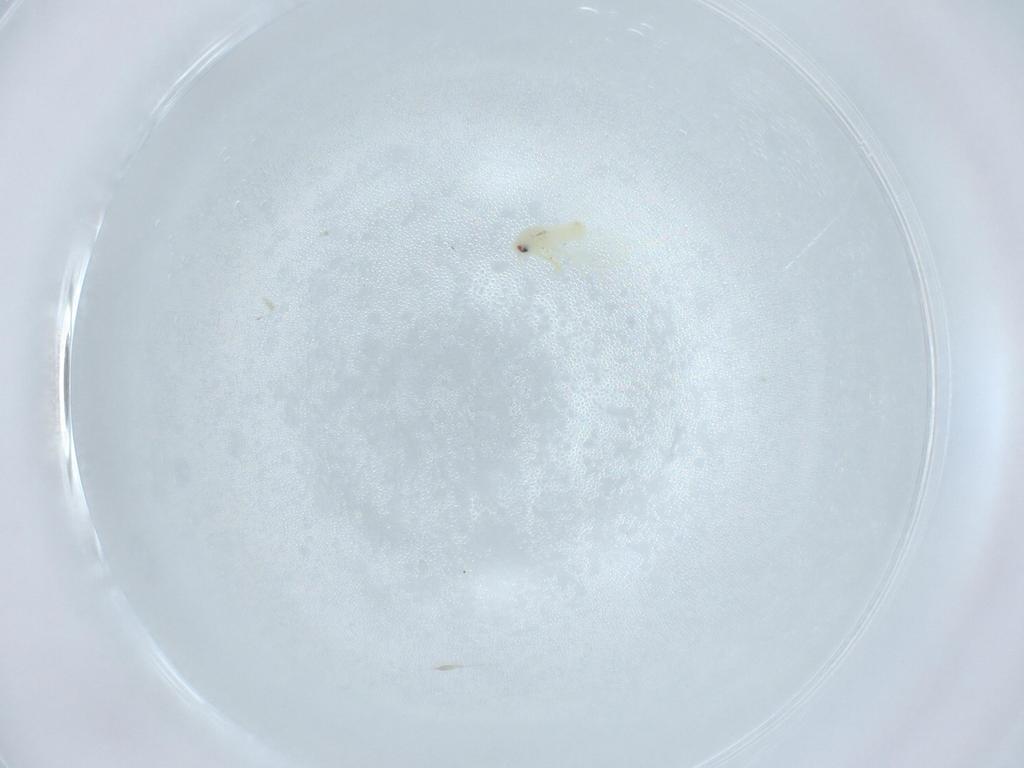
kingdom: Animalia
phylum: Arthropoda
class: Insecta
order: Hemiptera
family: Aleyrodidae
